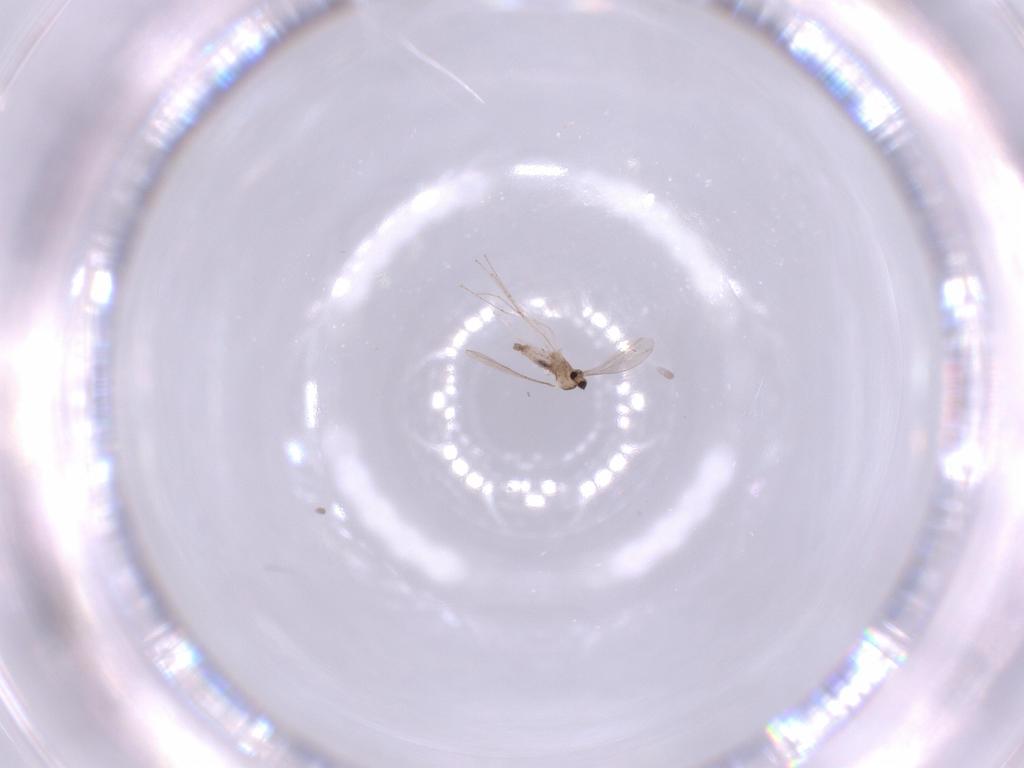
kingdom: Animalia
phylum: Arthropoda
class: Insecta
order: Diptera
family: Cecidomyiidae
